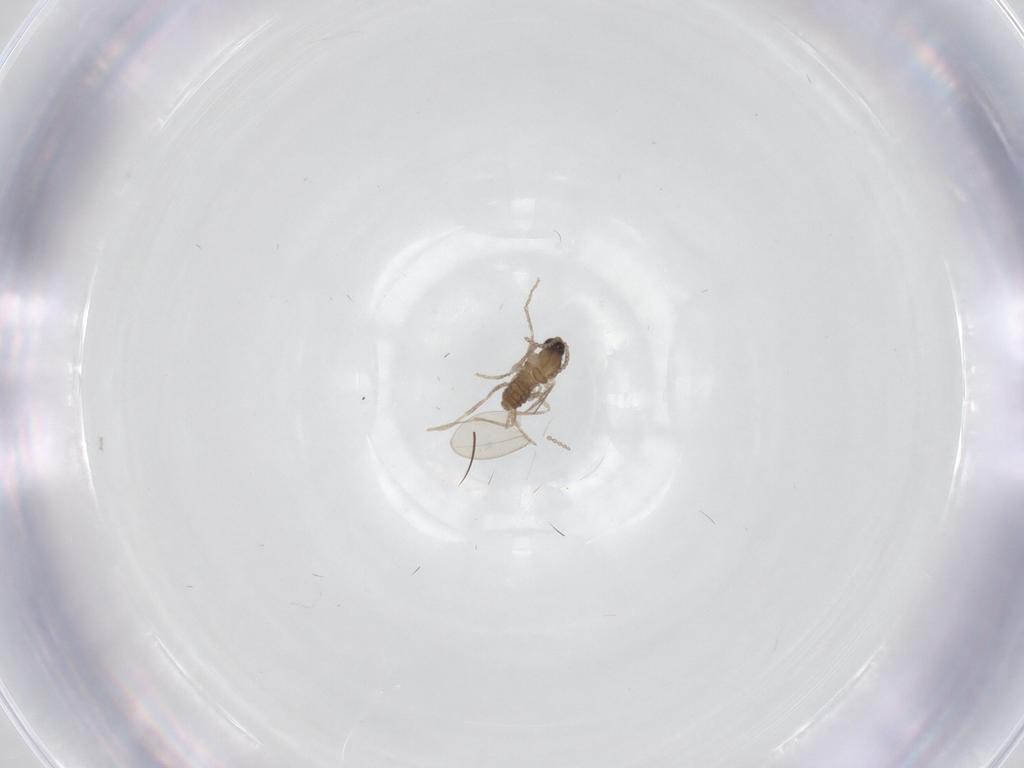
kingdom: Animalia
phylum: Arthropoda
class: Insecta
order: Diptera
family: Cecidomyiidae
